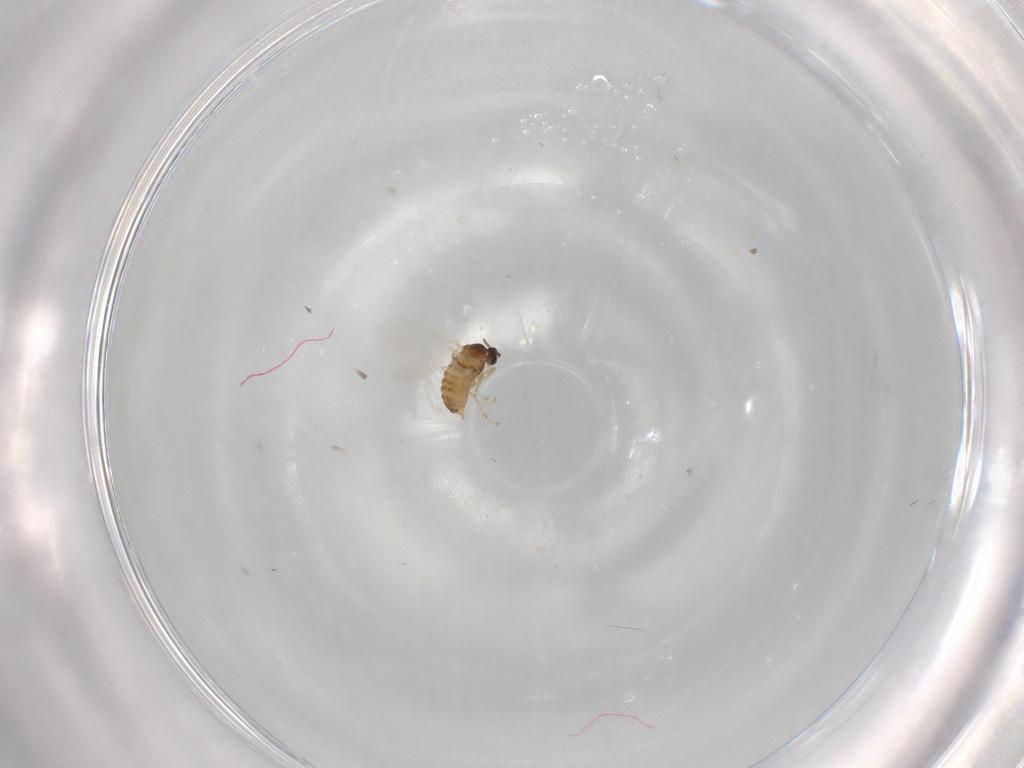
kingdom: Animalia
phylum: Arthropoda
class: Insecta
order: Diptera
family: Cecidomyiidae
